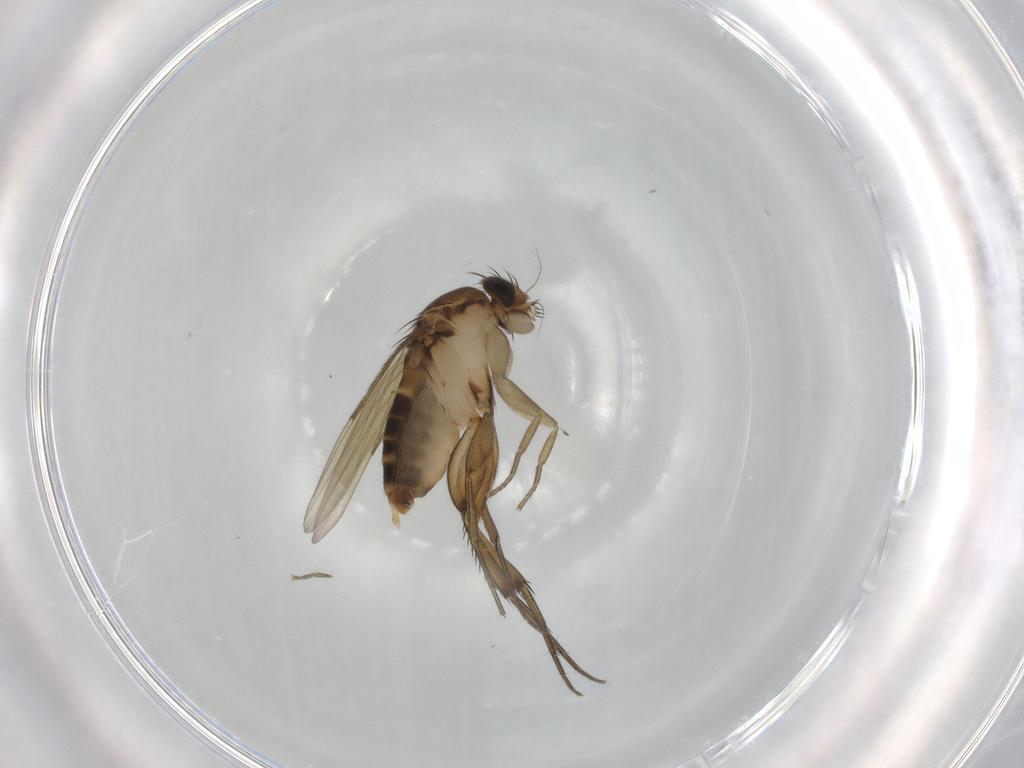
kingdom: Animalia
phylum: Arthropoda
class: Insecta
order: Diptera
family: Phoridae
